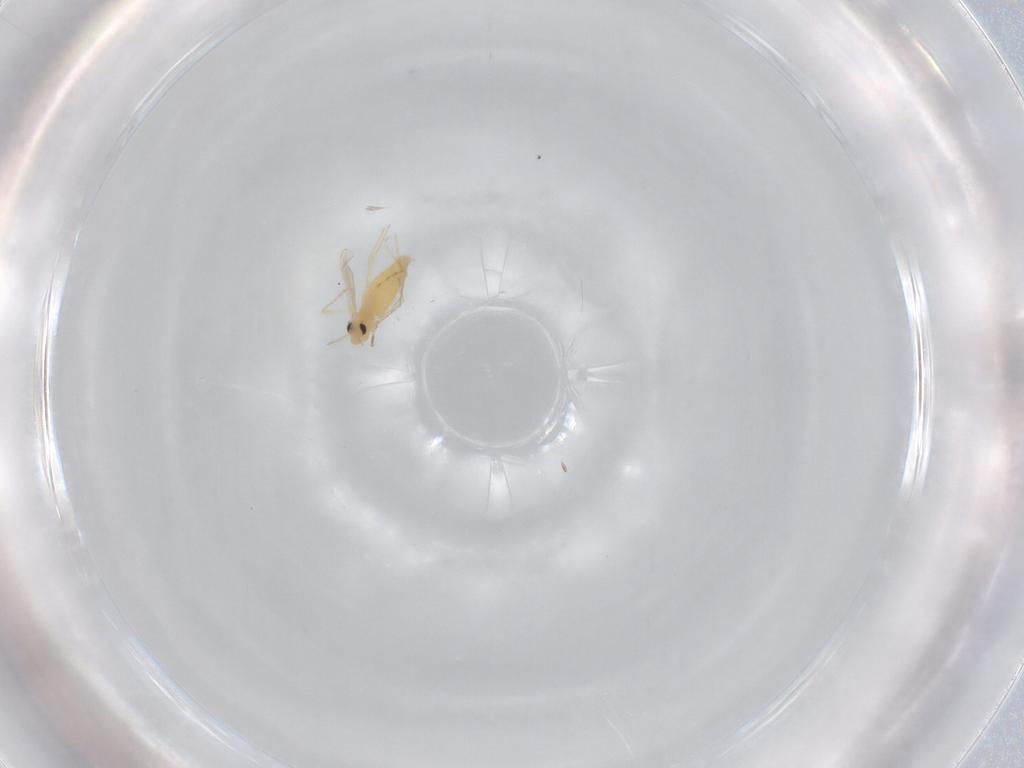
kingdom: Animalia
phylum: Arthropoda
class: Insecta
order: Diptera
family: Chironomidae
